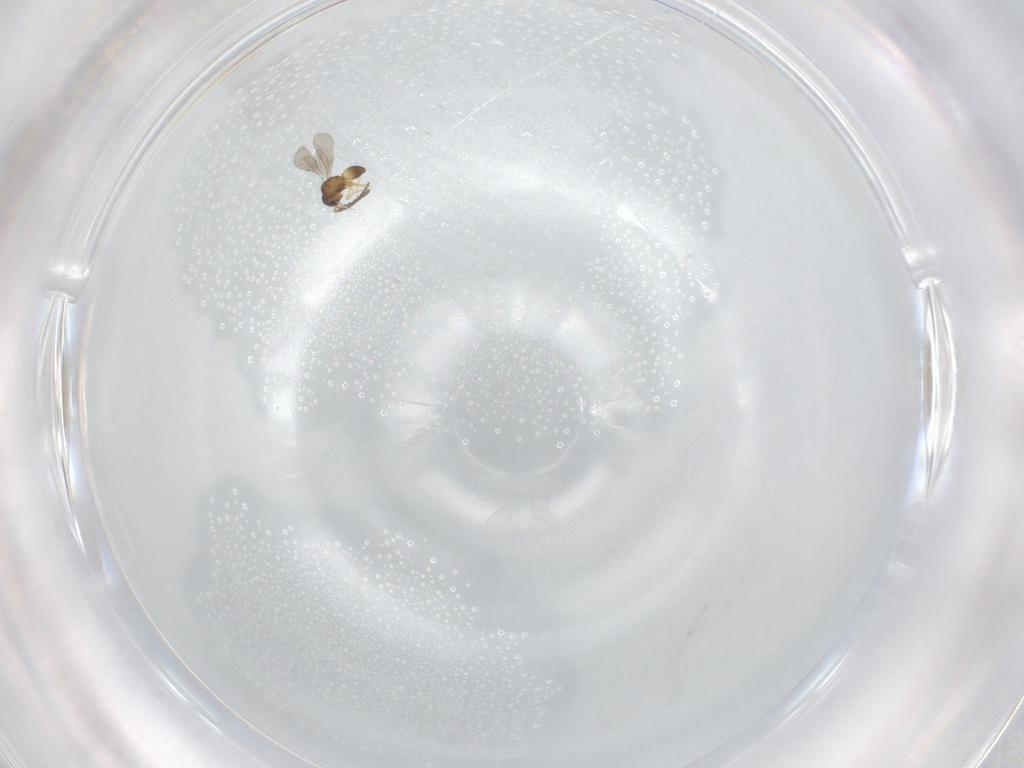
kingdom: Animalia
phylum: Arthropoda
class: Insecta
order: Hymenoptera
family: Ceraphronidae
